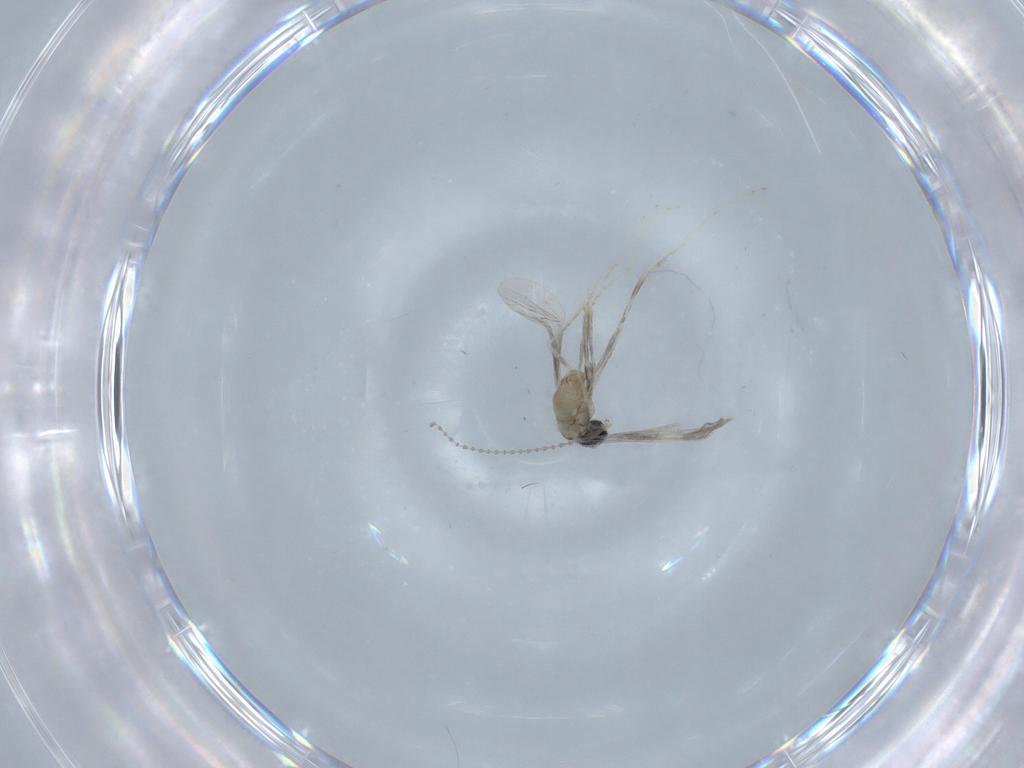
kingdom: Animalia
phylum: Arthropoda
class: Insecta
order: Diptera
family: Cecidomyiidae
